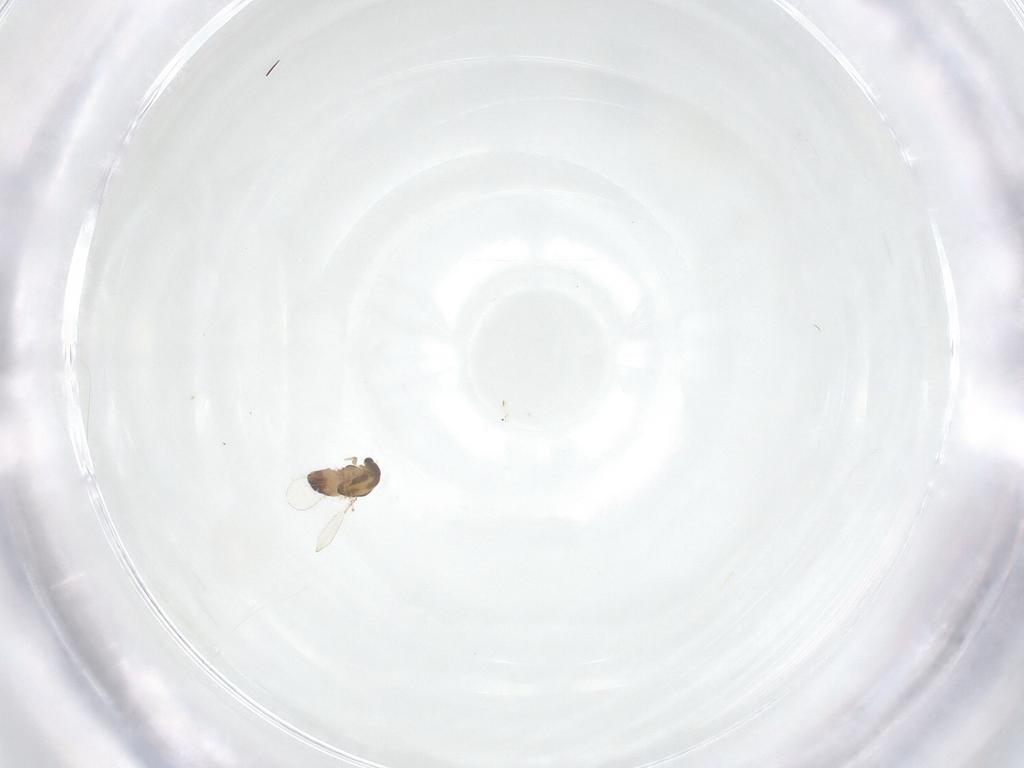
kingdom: Animalia
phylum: Arthropoda
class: Insecta
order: Diptera
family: Chironomidae
